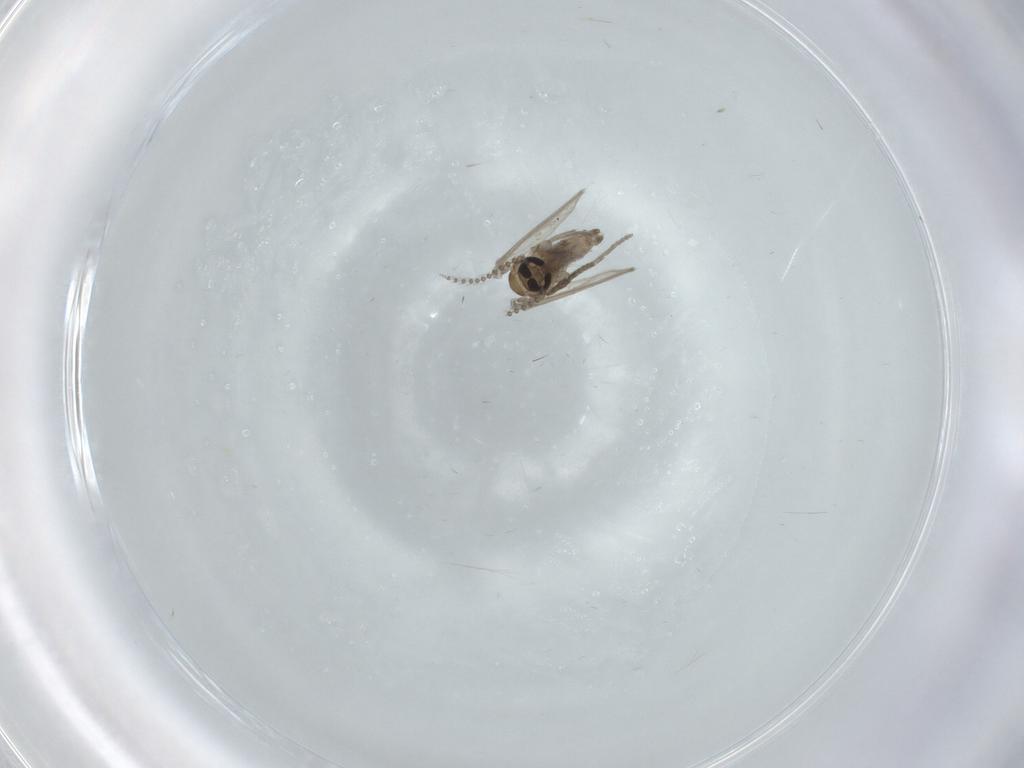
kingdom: Animalia
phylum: Arthropoda
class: Insecta
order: Diptera
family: Psychodidae
